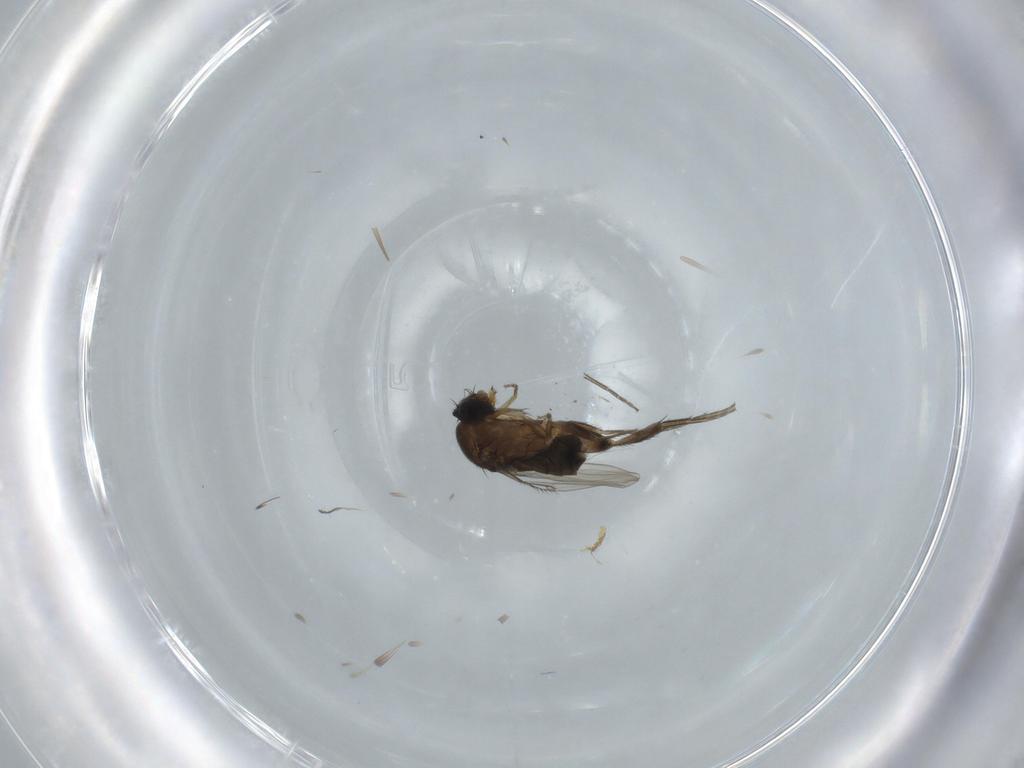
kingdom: Animalia
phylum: Arthropoda
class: Insecta
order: Diptera
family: Phoridae
